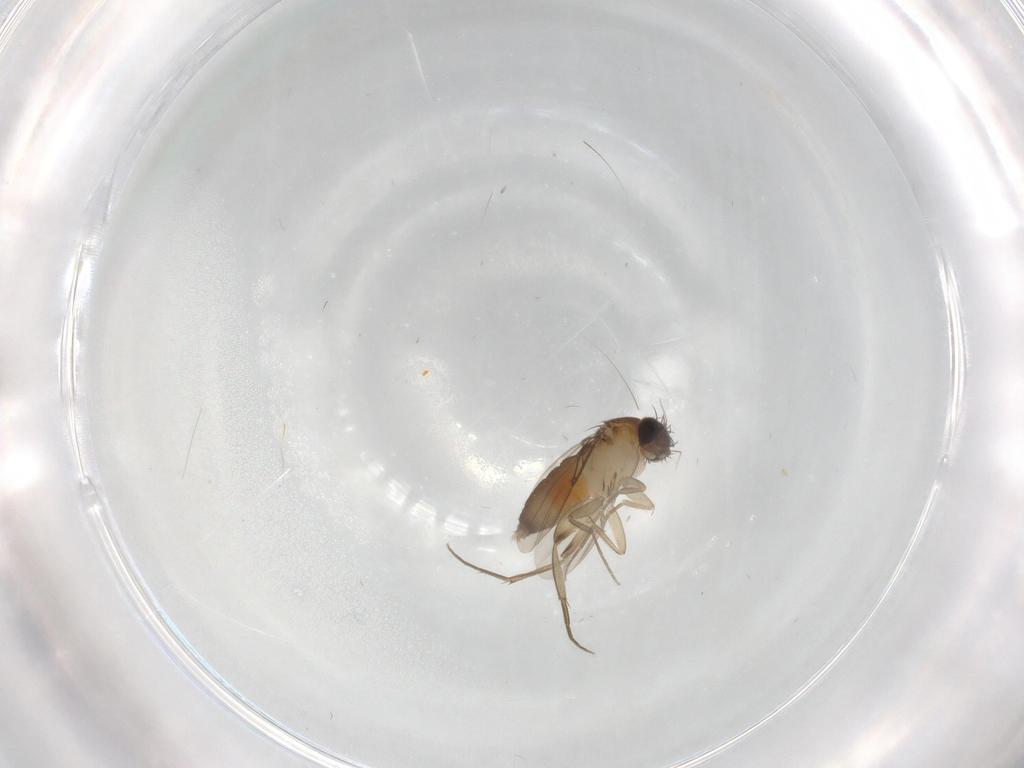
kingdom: Animalia
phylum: Arthropoda
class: Insecta
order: Diptera
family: Phoridae
